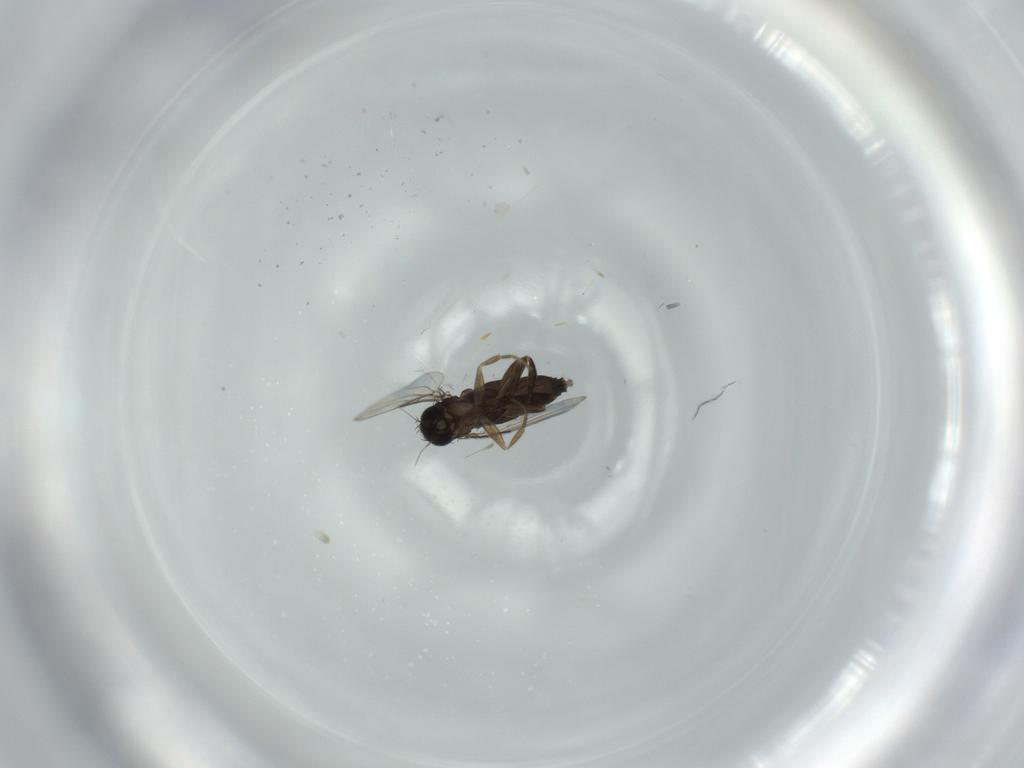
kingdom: Animalia
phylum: Arthropoda
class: Insecta
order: Diptera
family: Phoridae
